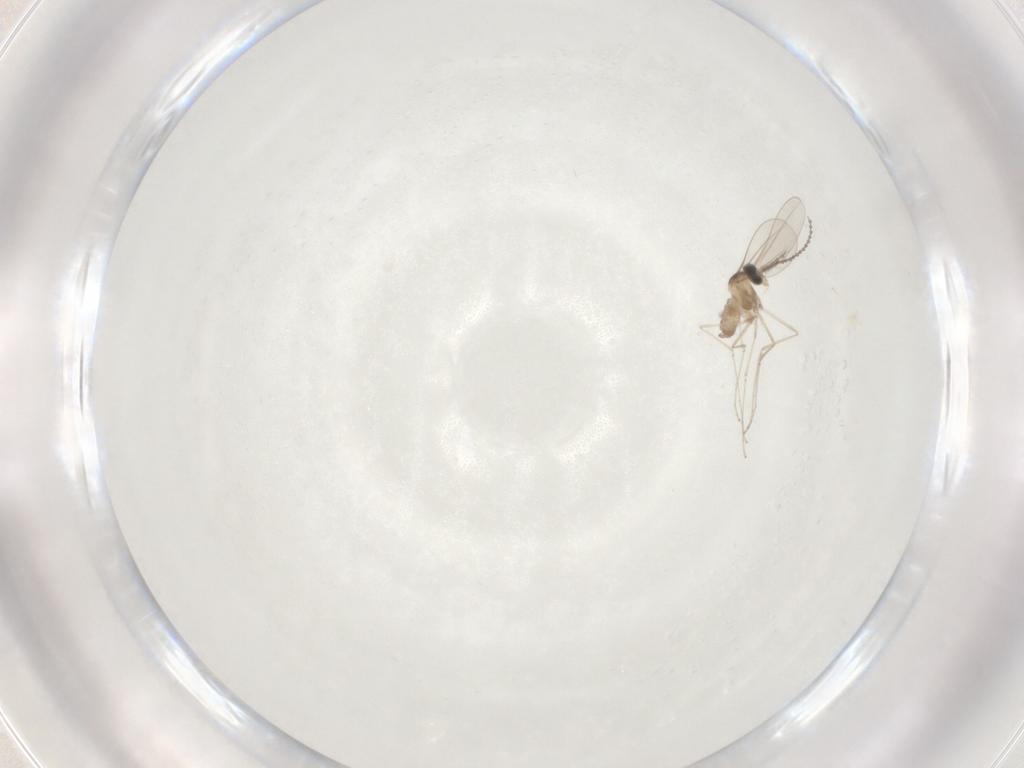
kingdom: Animalia
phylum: Arthropoda
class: Insecta
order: Diptera
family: Cecidomyiidae
